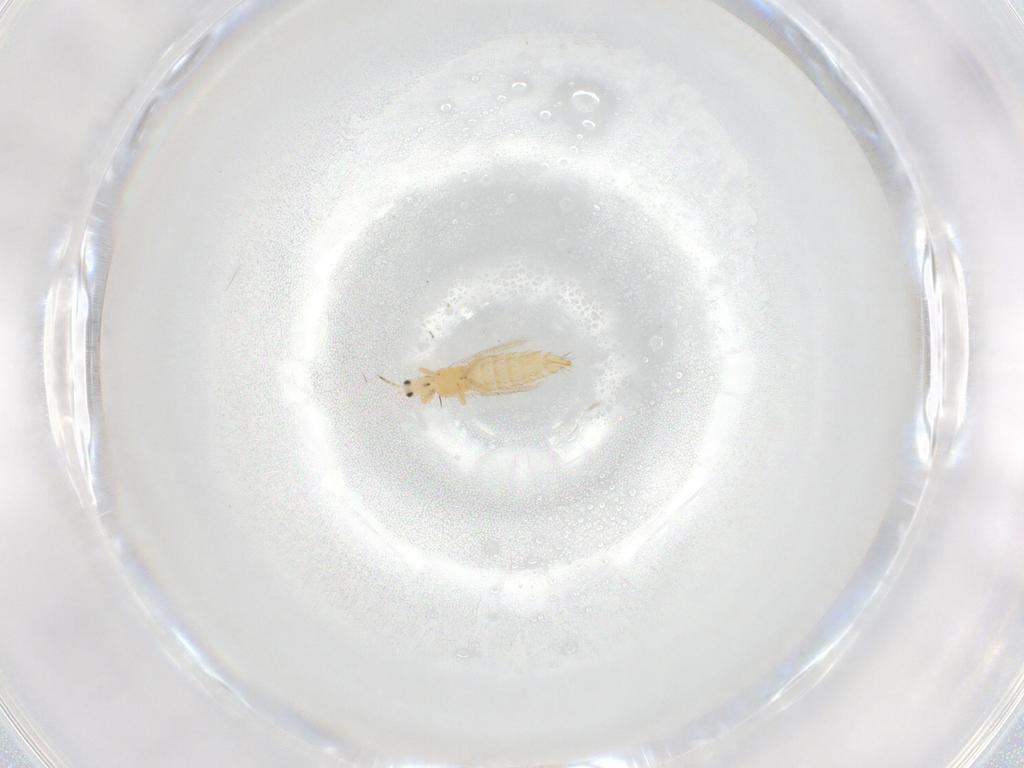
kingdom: Animalia
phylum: Arthropoda
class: Insecta
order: Thysanoptera
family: Thripidae
